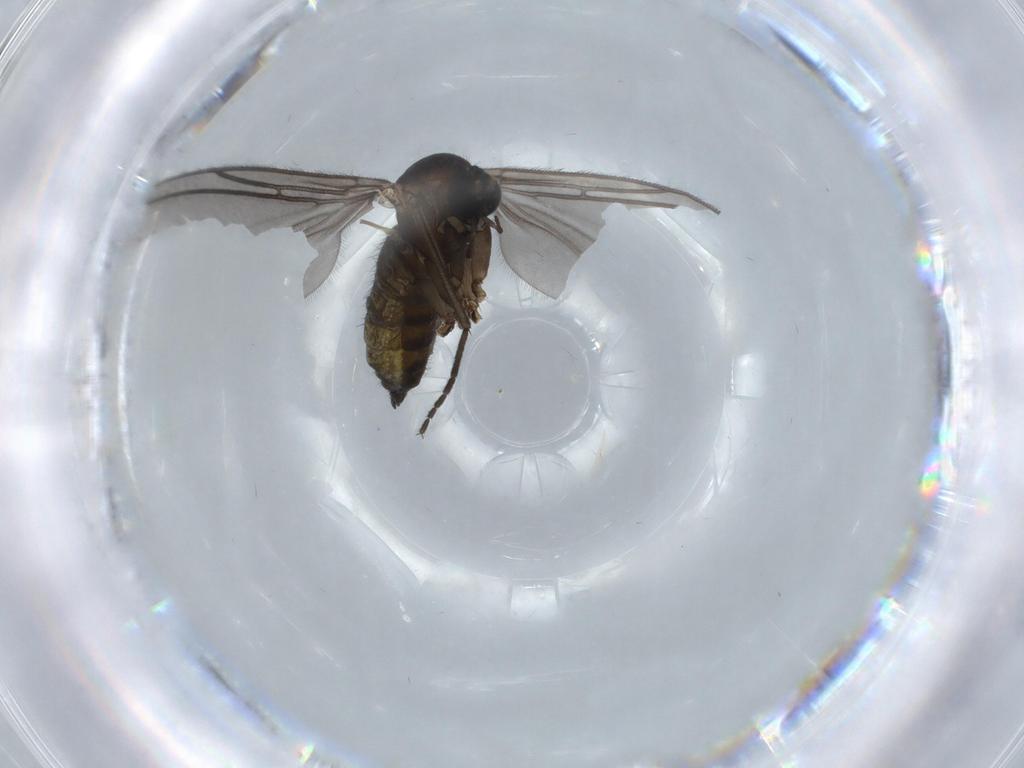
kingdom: Animalia
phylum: Arthropoda
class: Insecta
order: Diptera
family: Sciaridae
